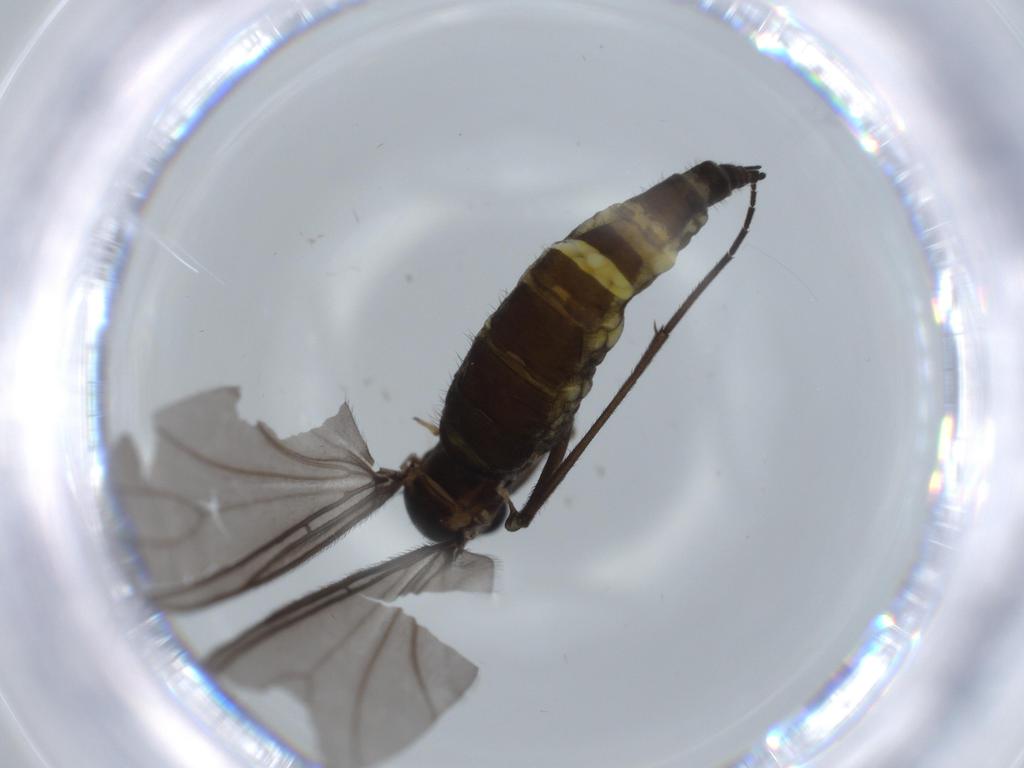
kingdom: Animalia
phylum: Arthropoda
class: Insecta
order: Diptera
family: Sciaridae
